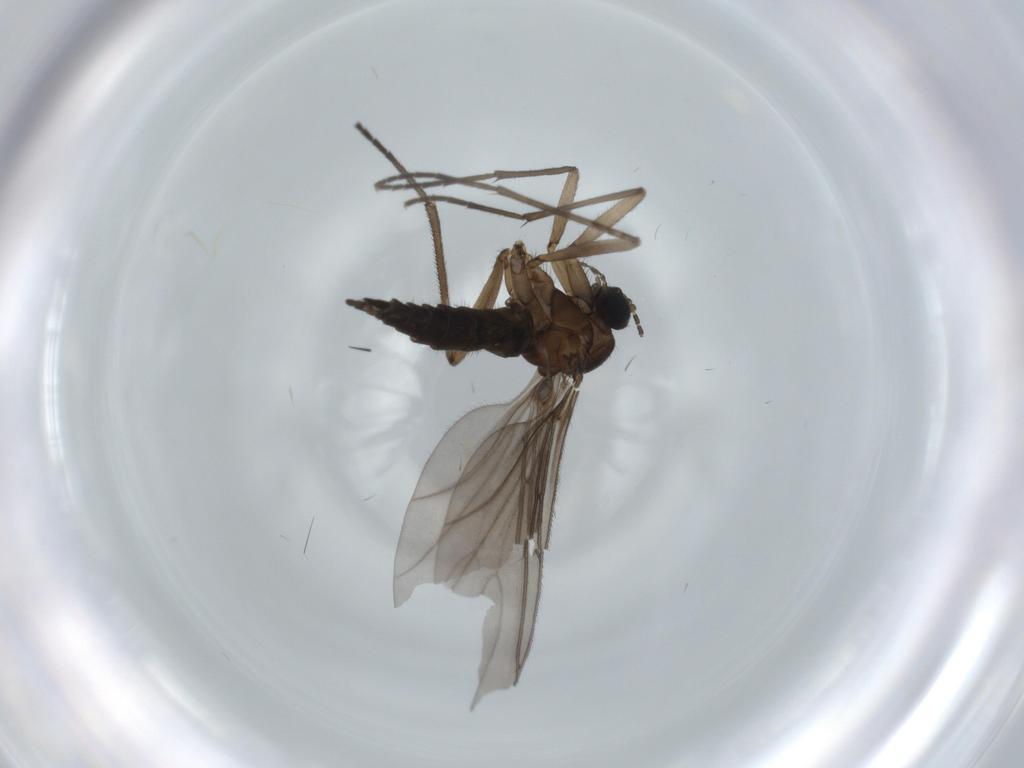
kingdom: Animalia
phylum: Arthropoda
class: Insecta
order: Diptera
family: Sciaridae
